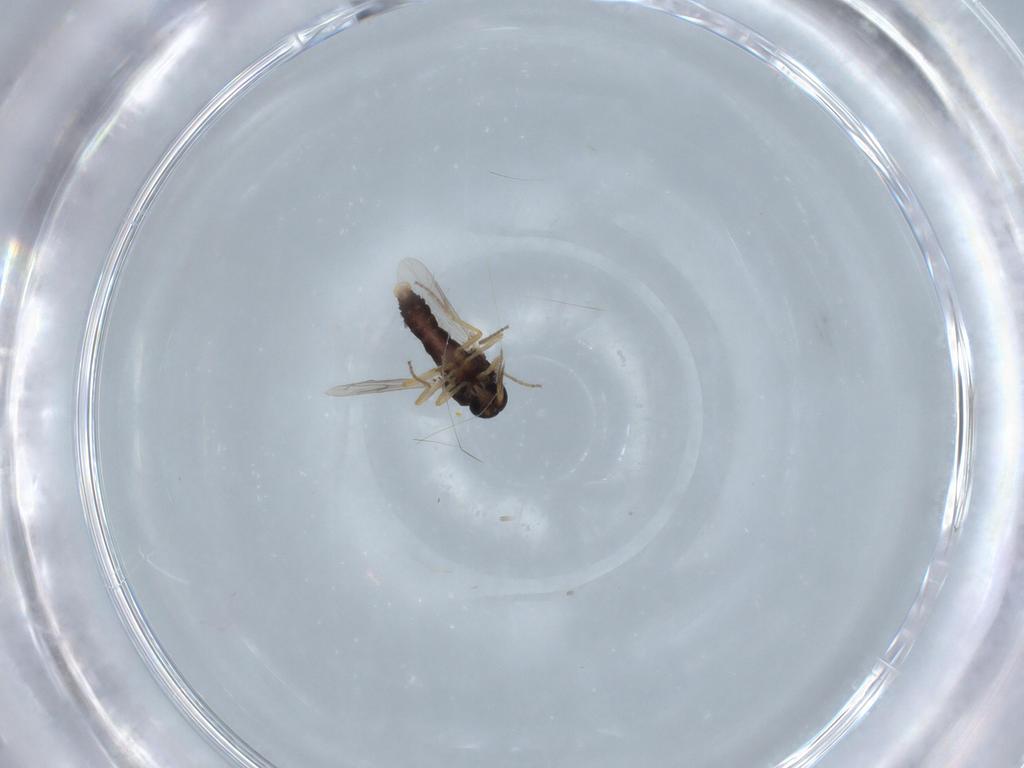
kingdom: Animalia
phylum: Arthropoda
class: Insecta
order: Diptera
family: Ceratopogonidae
